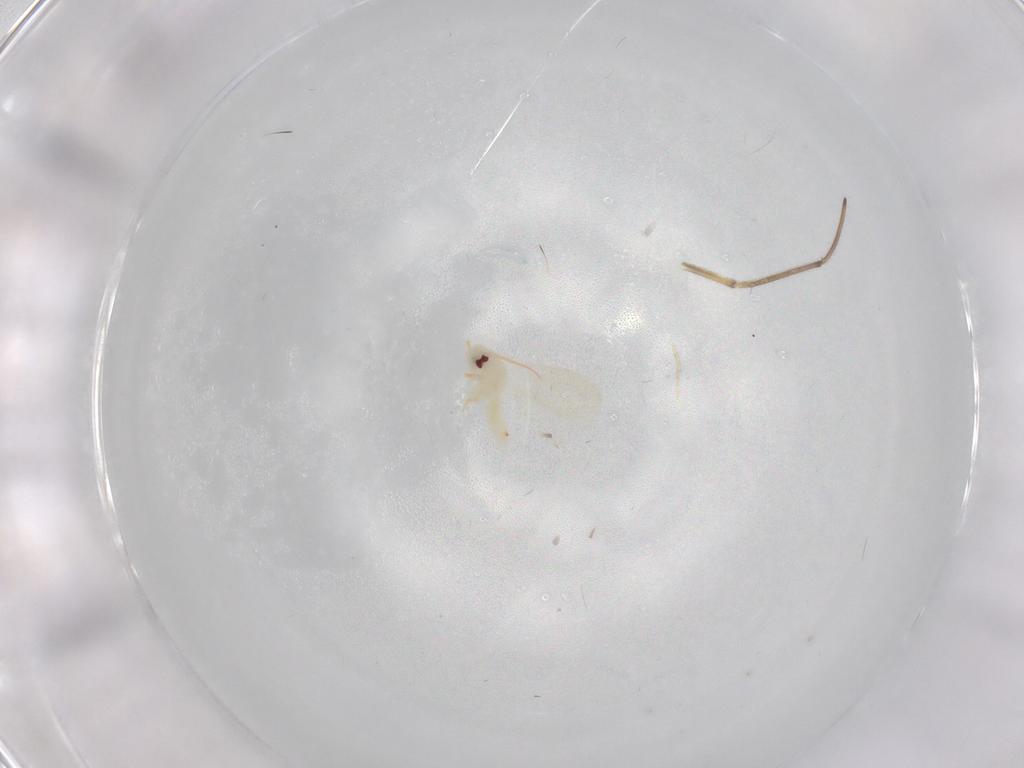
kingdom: Animalia
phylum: Arthropoda
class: Insecta
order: Hemiptera
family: Aleyrodidae
